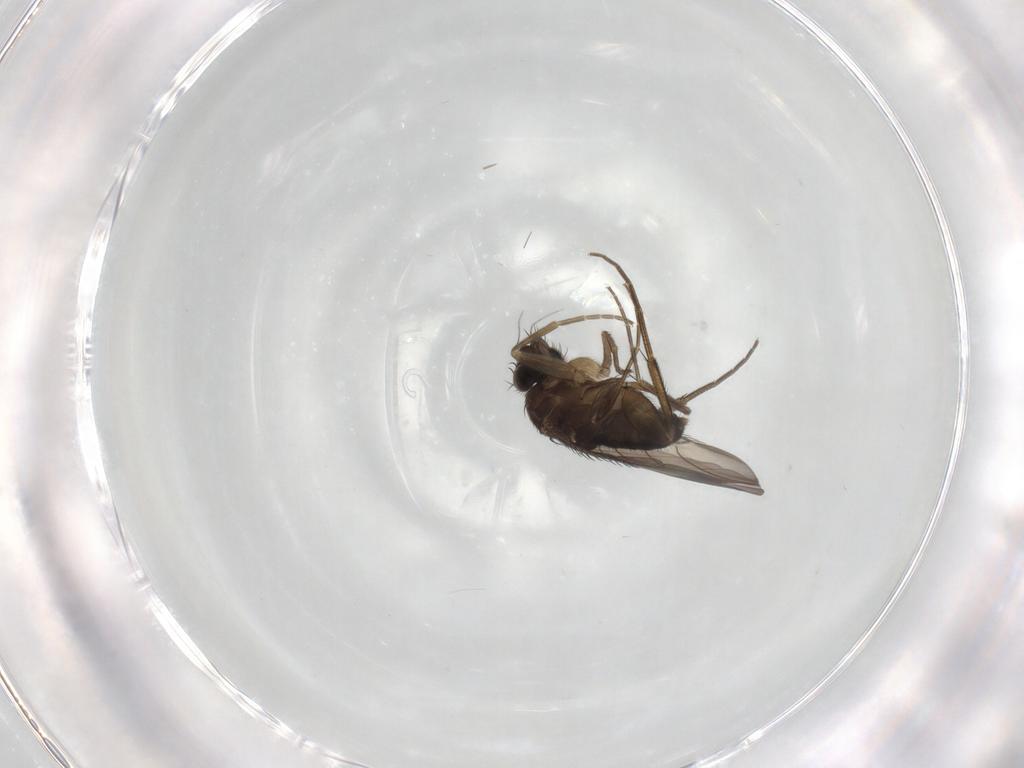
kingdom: Animalia
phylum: Arthropoda
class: Insecta
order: Diptera
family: Phoridae
